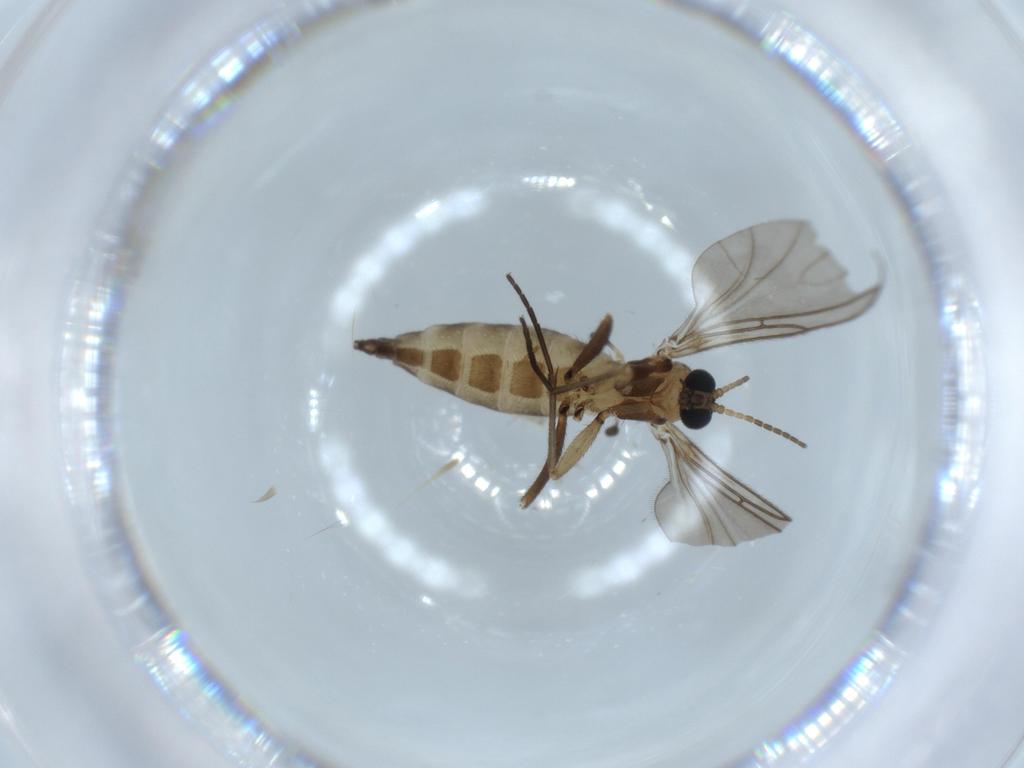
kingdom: Animalia
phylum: Arthropoda
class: Insecta
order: Diptera
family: Sciaridae
